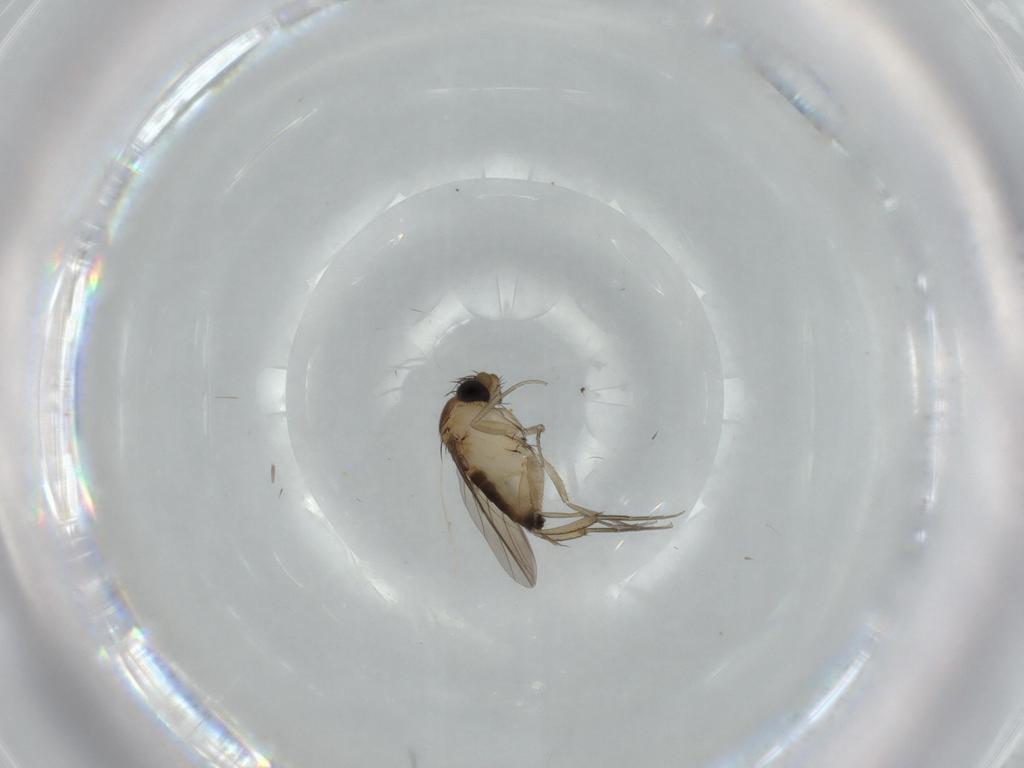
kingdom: Animalia
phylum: Arthropoda
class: Insecta
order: Diptera
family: Phoridae
